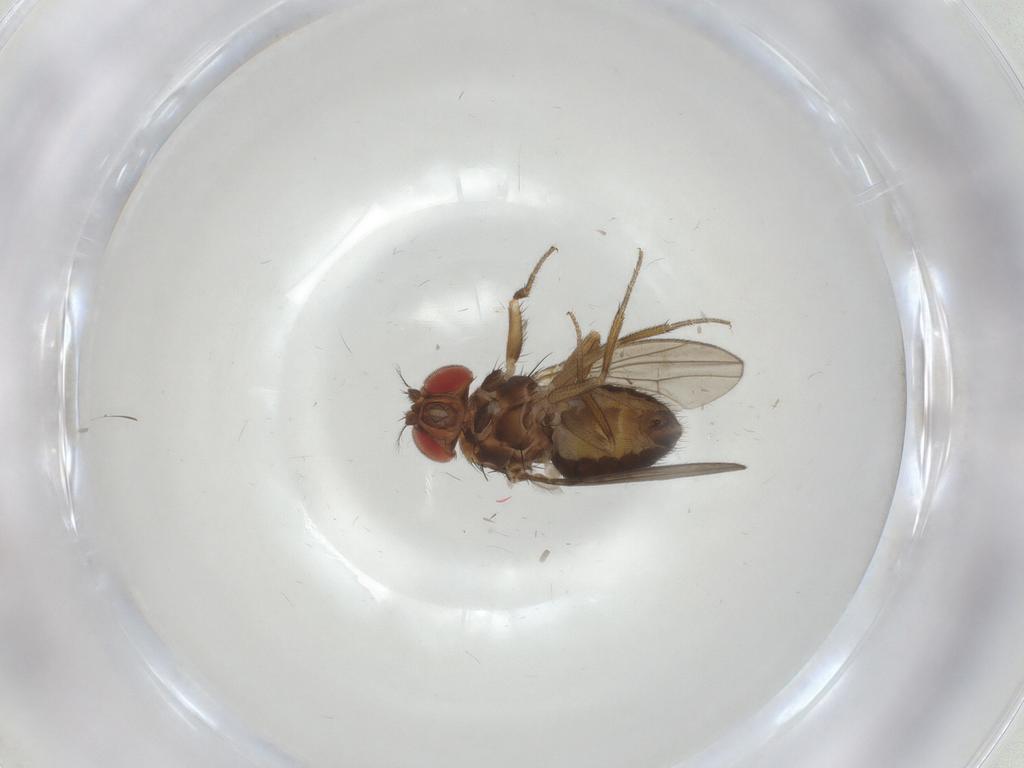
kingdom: Animalia
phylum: Arthropoda
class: Insecta
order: Diptera
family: Drosophilidae
